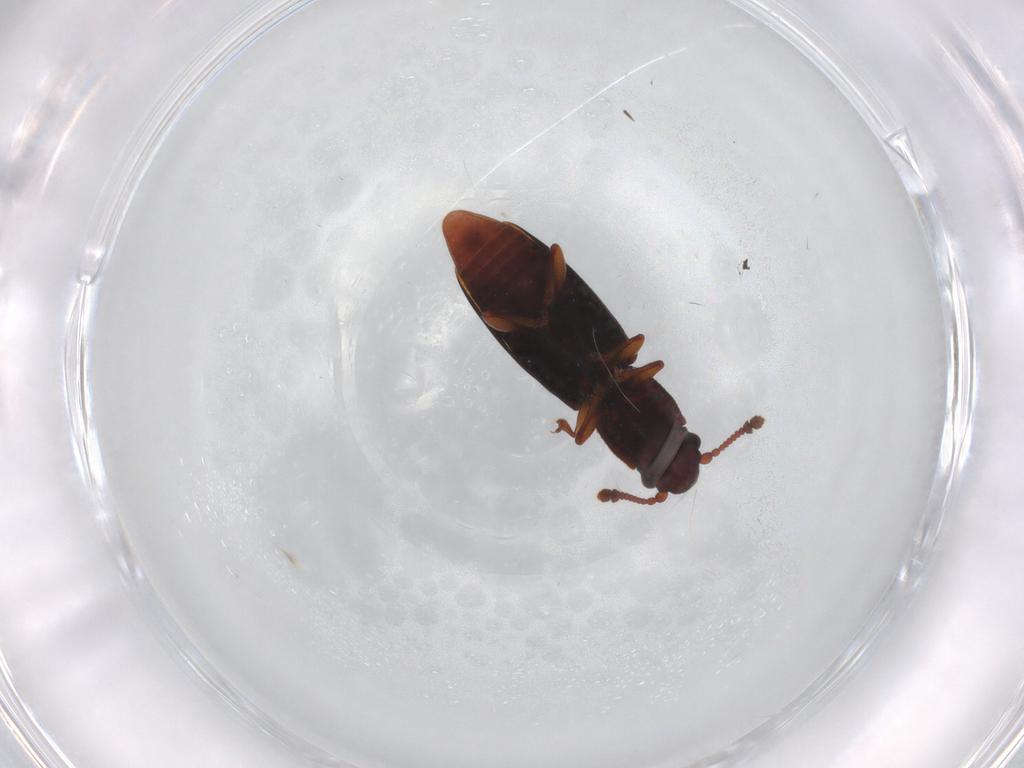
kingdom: Animalia
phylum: Arthropoda
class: Insecta
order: Coleoptera
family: Monotomidae
